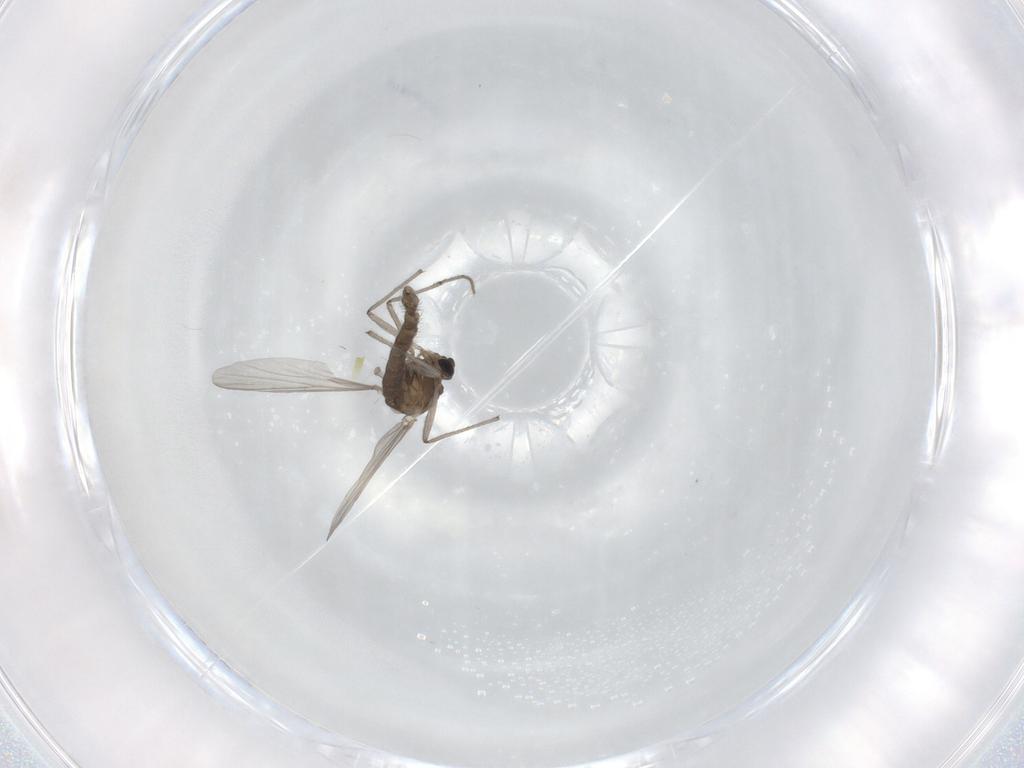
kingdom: Animalia
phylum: Arthropoda
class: Insecta
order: Diptera
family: Chironomidae
